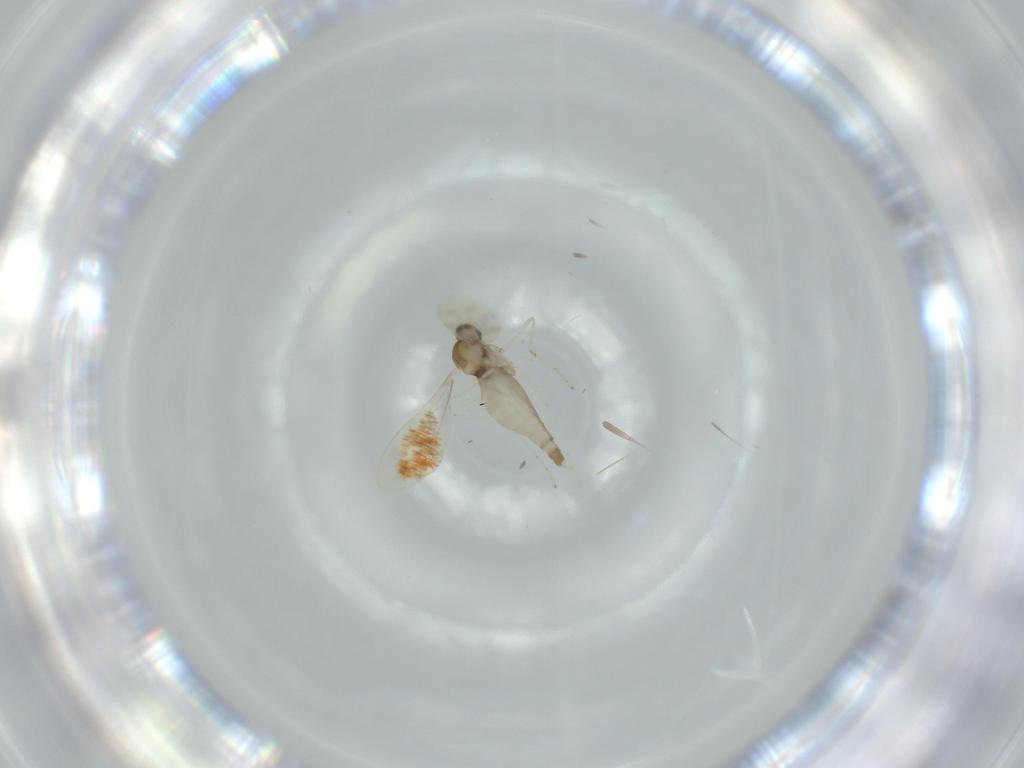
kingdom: Animalia
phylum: Arthropoda
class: Insecta
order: Diptera
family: Cecidomyiidae
